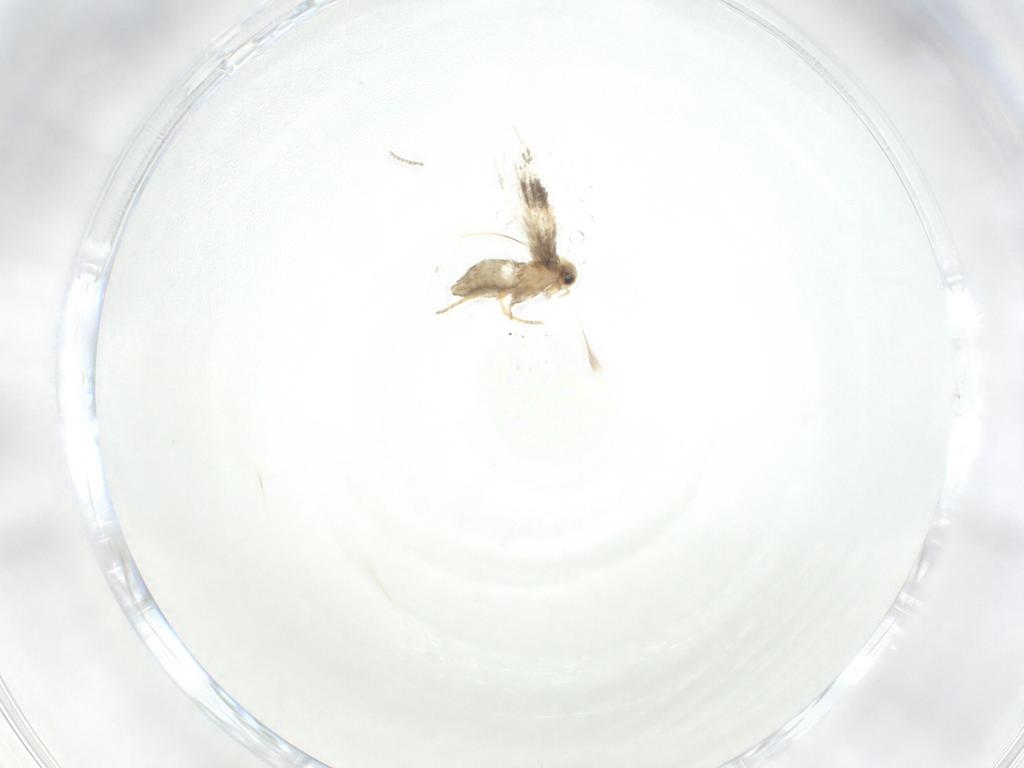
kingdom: Animalia
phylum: Arthropoda
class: Insecta
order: Lepidoptera
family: Nepticulidae
